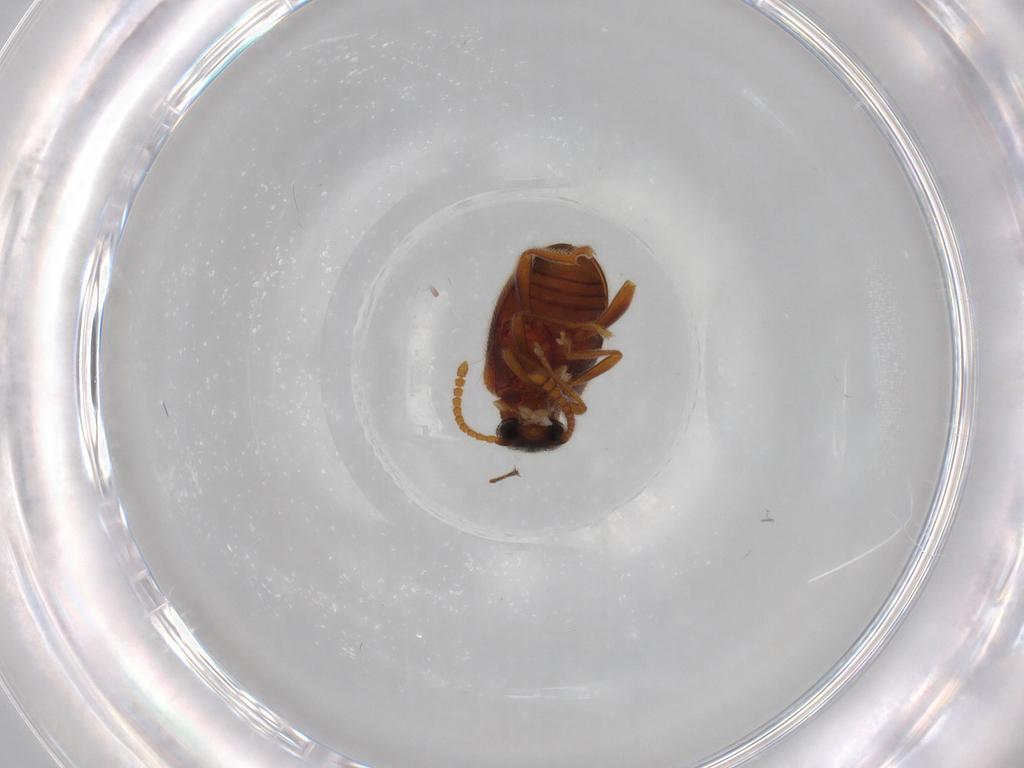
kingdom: Animalia
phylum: Arthropoda
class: Insecta
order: Coleoptera
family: Aderidae
